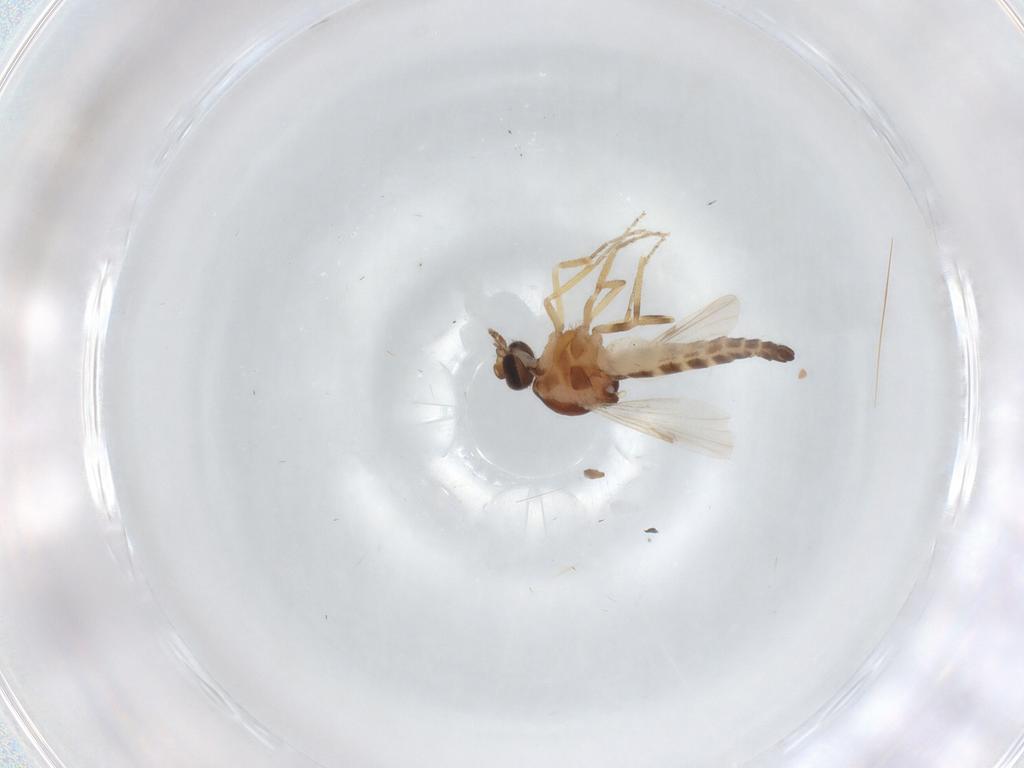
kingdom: Animalia
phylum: Arthropoda
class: Insecta
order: Diptera
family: Ceratopogonidae
